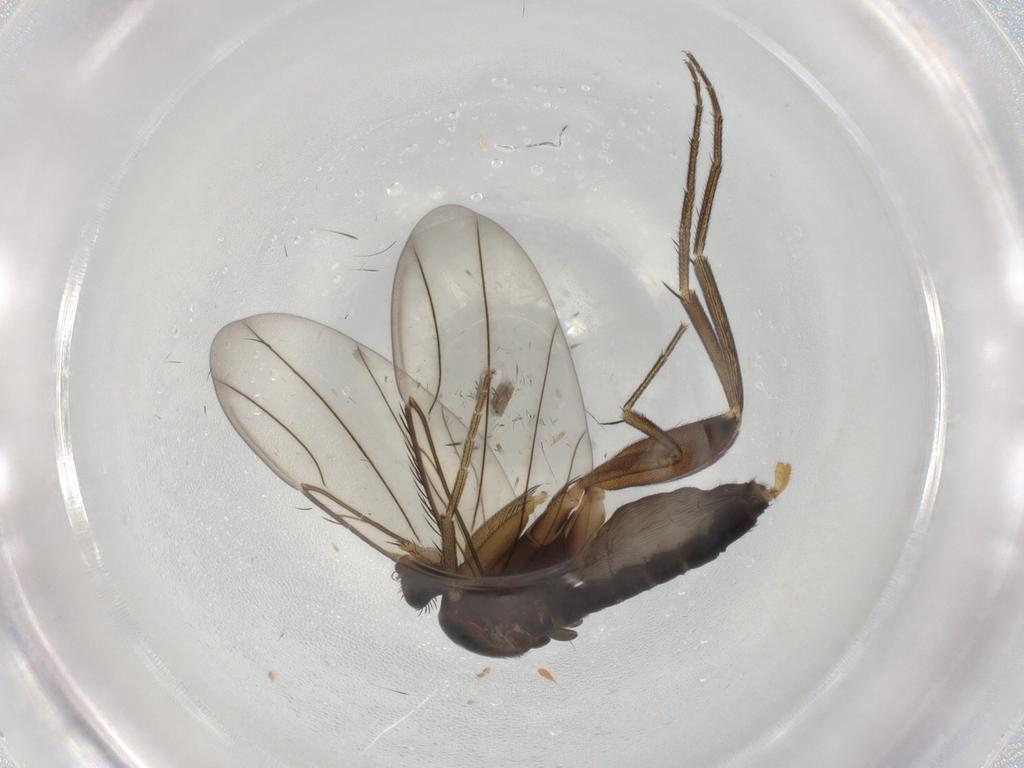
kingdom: Animalia
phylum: Arthropoda
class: Insecta
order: Diptera
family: Phoridae
